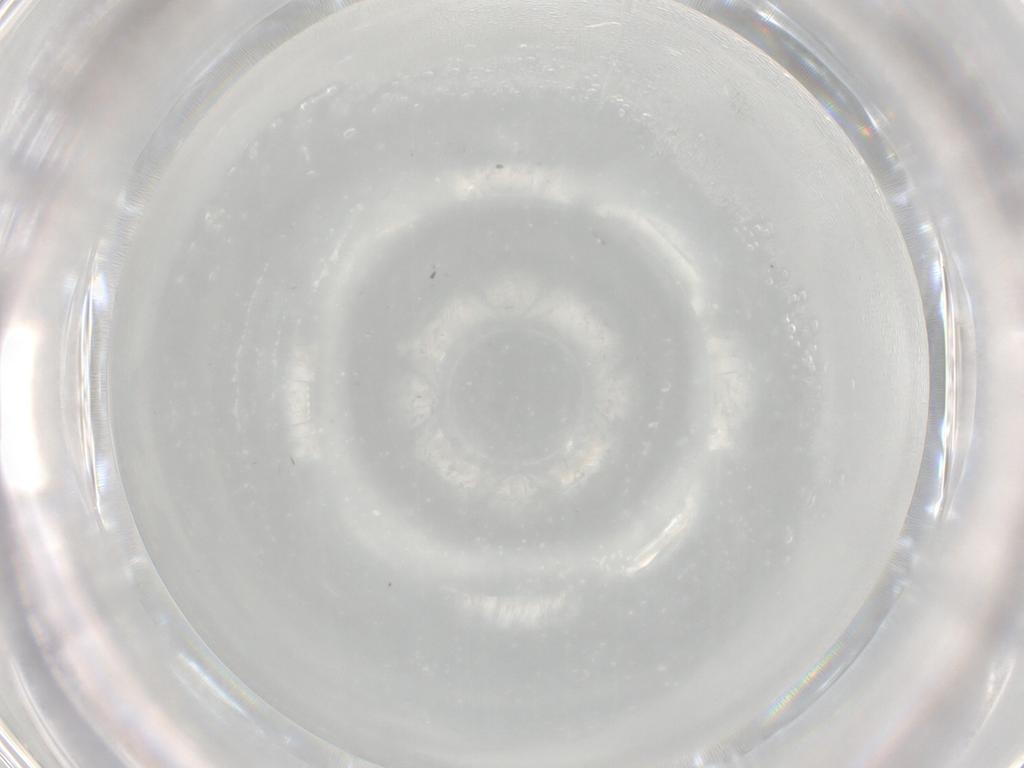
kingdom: Animalia
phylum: Arthropoda
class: Insecta
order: Diptera
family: Cecidomyiidae
